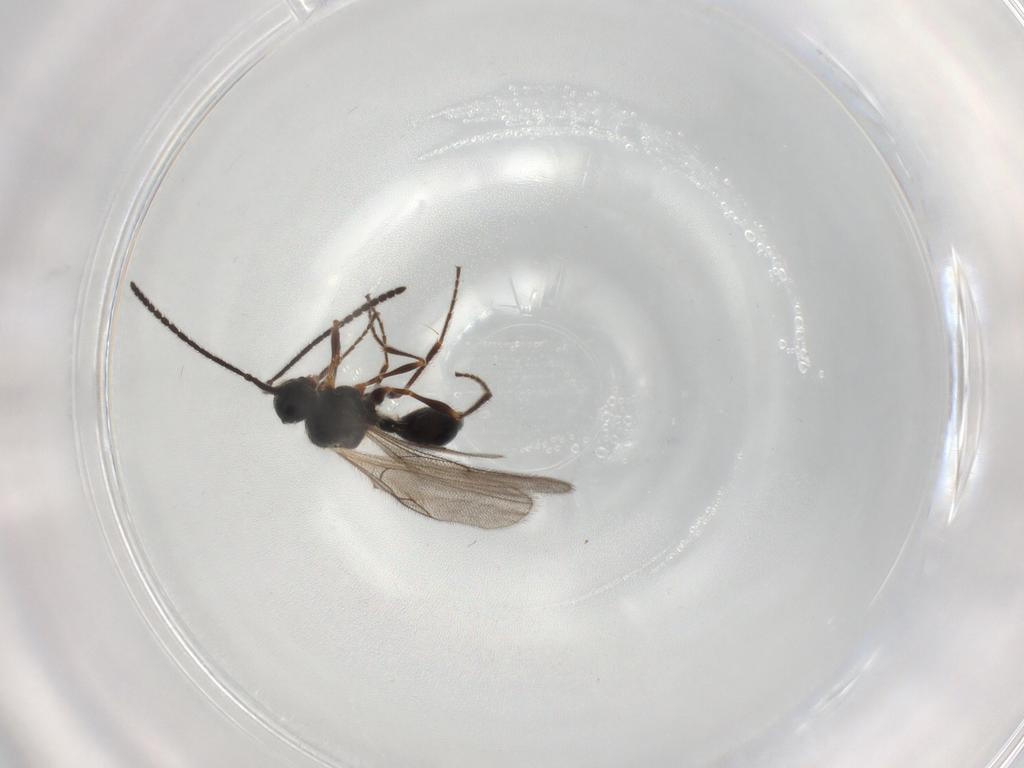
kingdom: Animalia
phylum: Arthropoda
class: Insecta
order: Hymenoptera
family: Diapriidae
